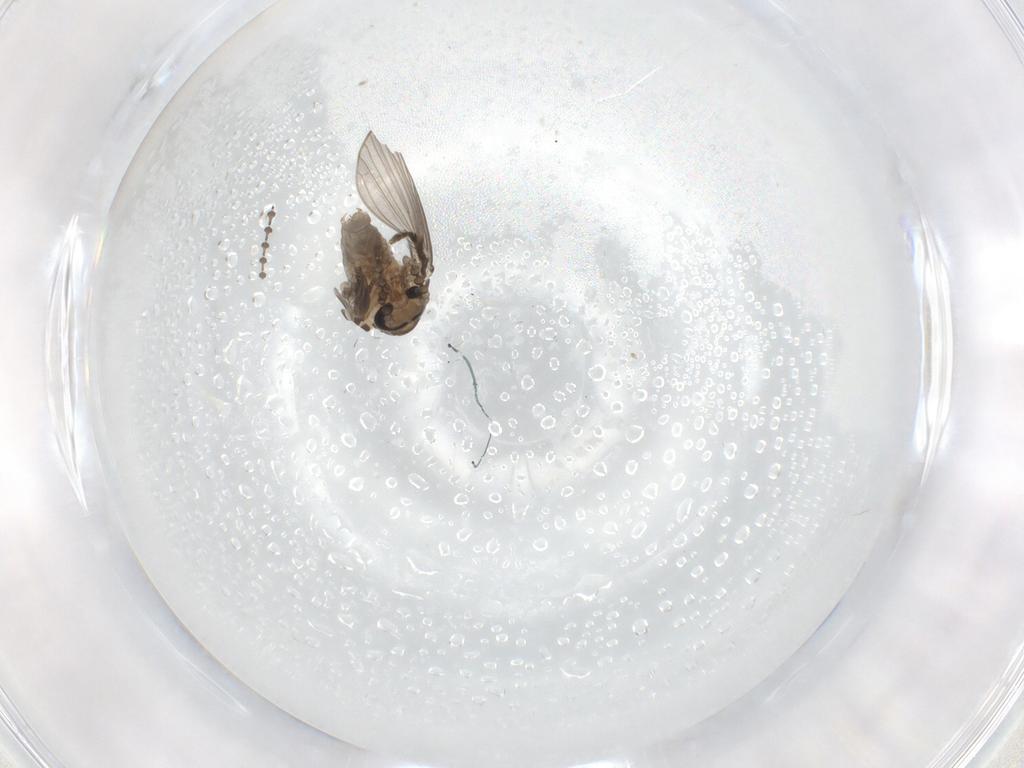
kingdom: Animalia
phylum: Arthropoda
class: Insecta
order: Diptera
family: Psychodidae
